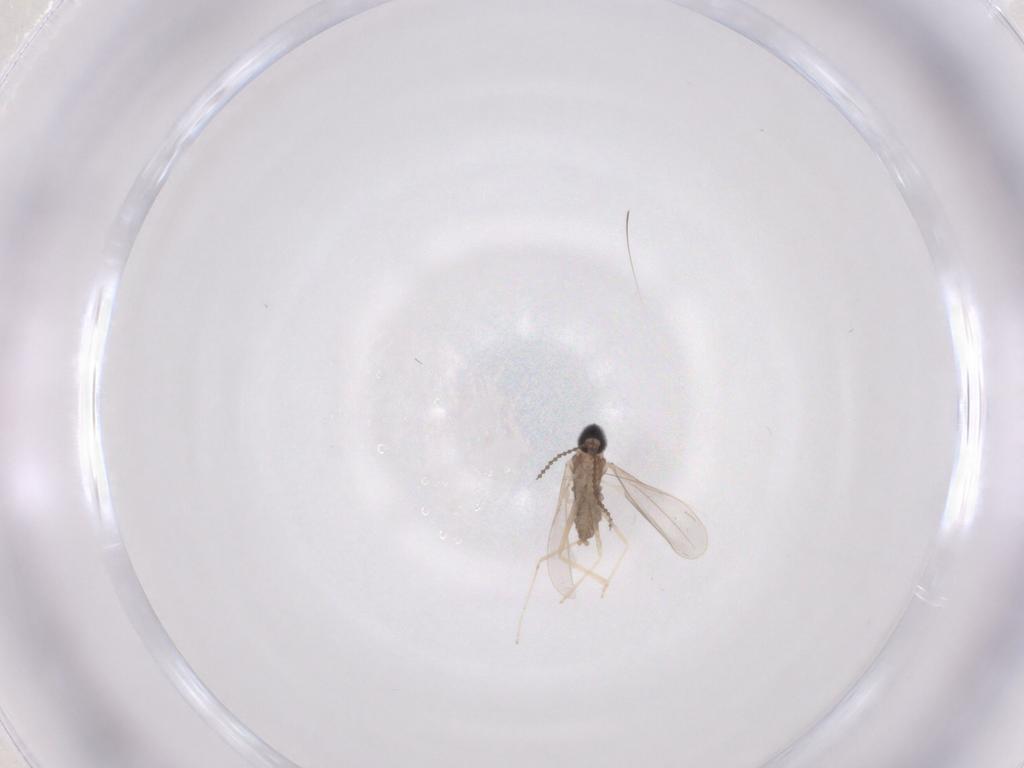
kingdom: Animalia
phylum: Arthropoda
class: Insecta
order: Diptera
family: Cecidomyiidae
